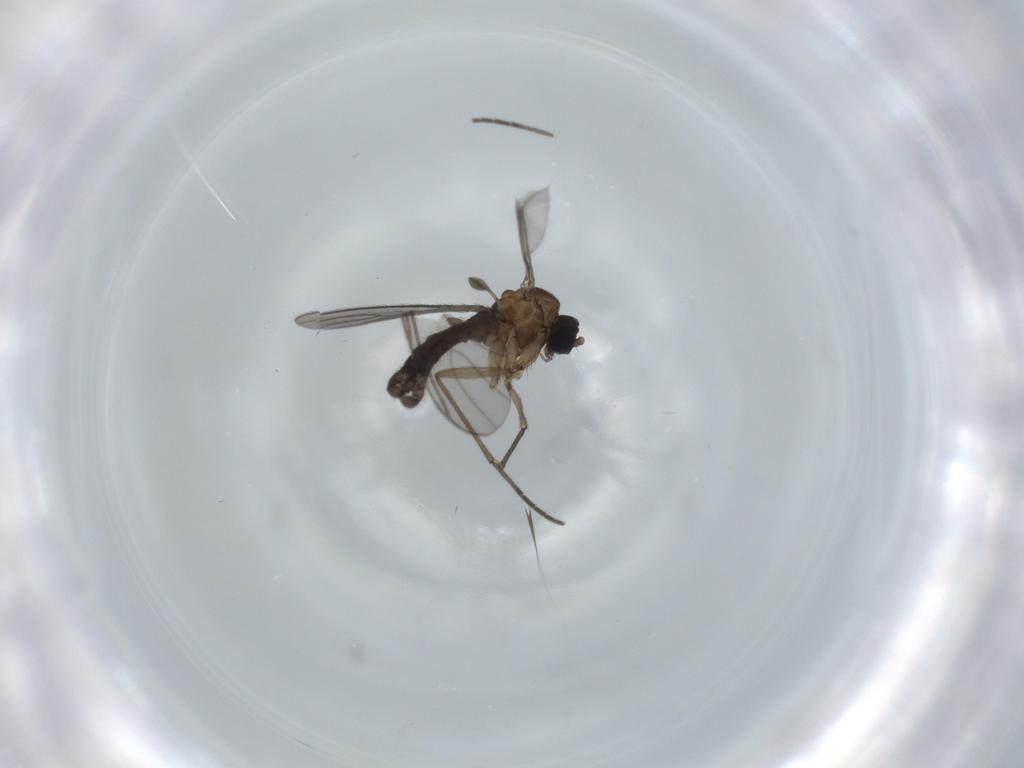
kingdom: Animalia
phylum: Arthropoda
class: Insecta
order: Diptera
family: Sciaridae
